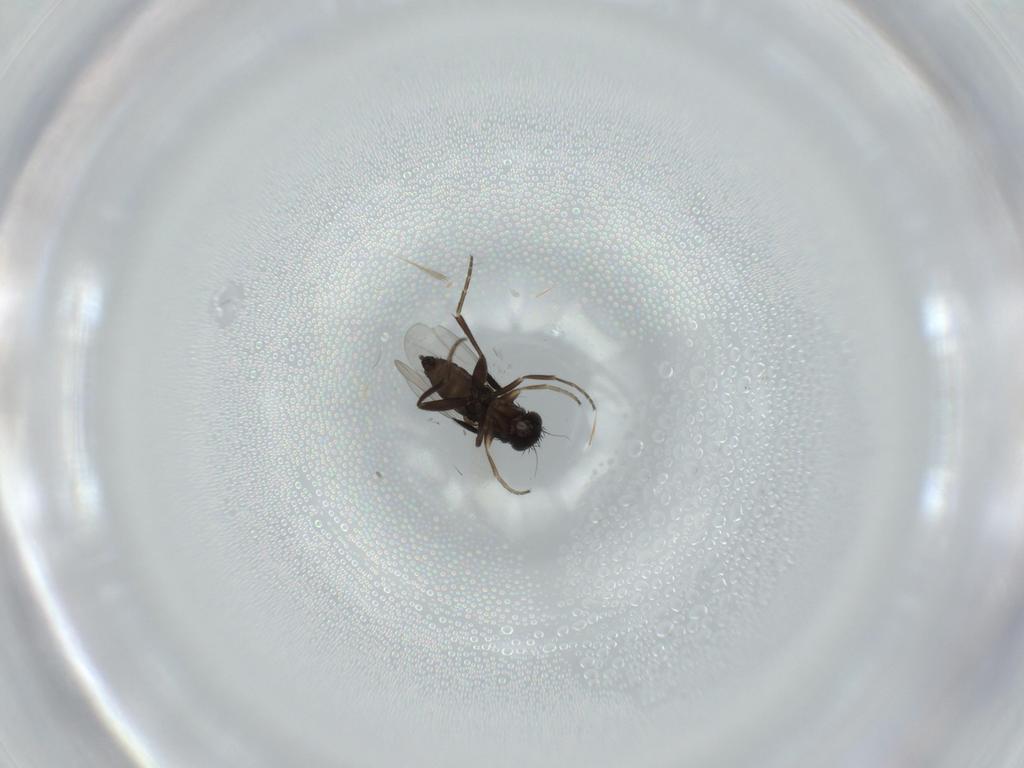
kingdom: Animalia
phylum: Arthropoda
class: Insecta
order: Diptera
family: Phoridae
